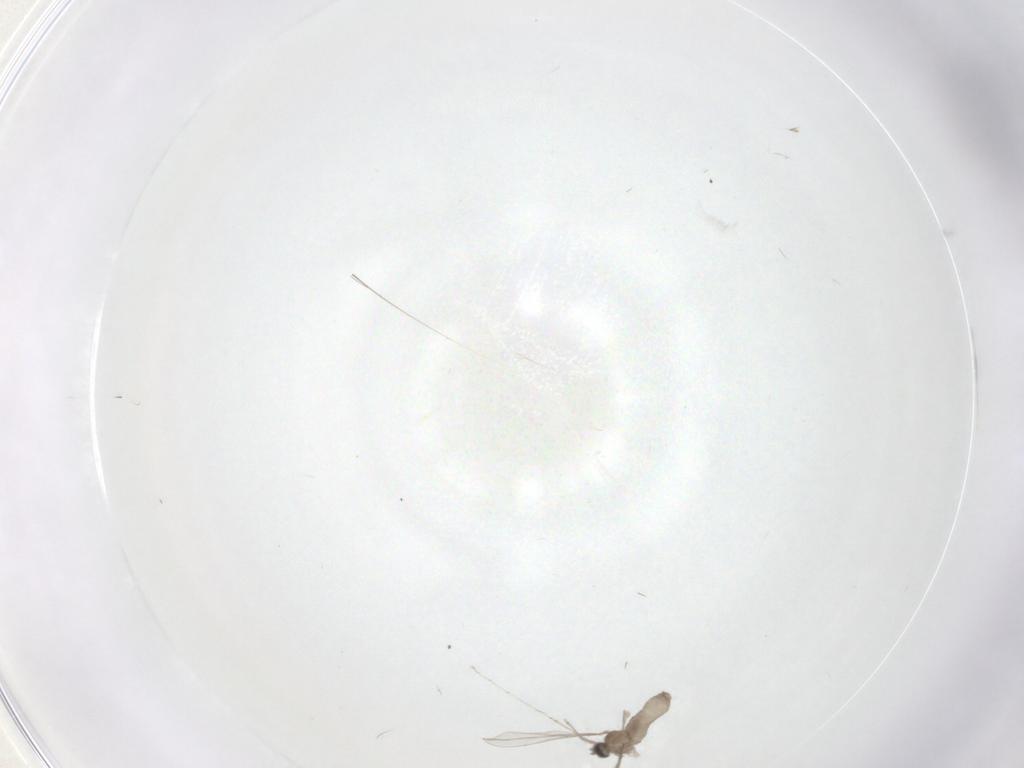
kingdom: Animalia
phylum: Arthropoda
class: Insecta
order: Diptera
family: Cecidomyiidae
